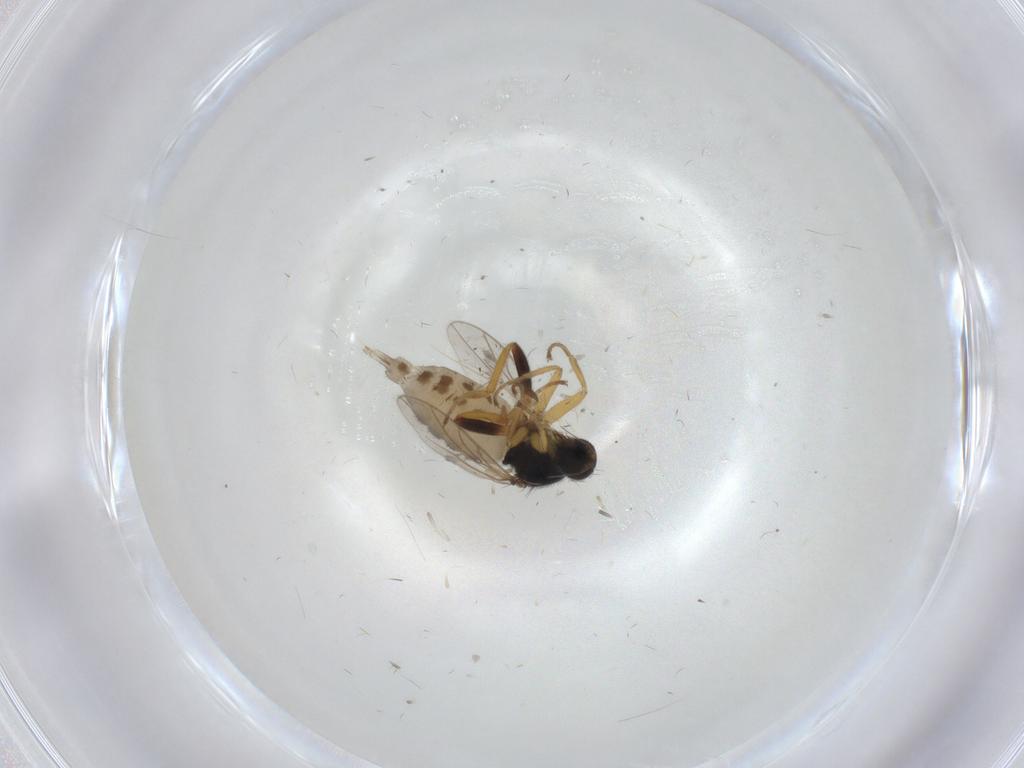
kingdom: Animalia
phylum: Arthropoda
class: Insecta
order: Diptera
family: Hybotidae
